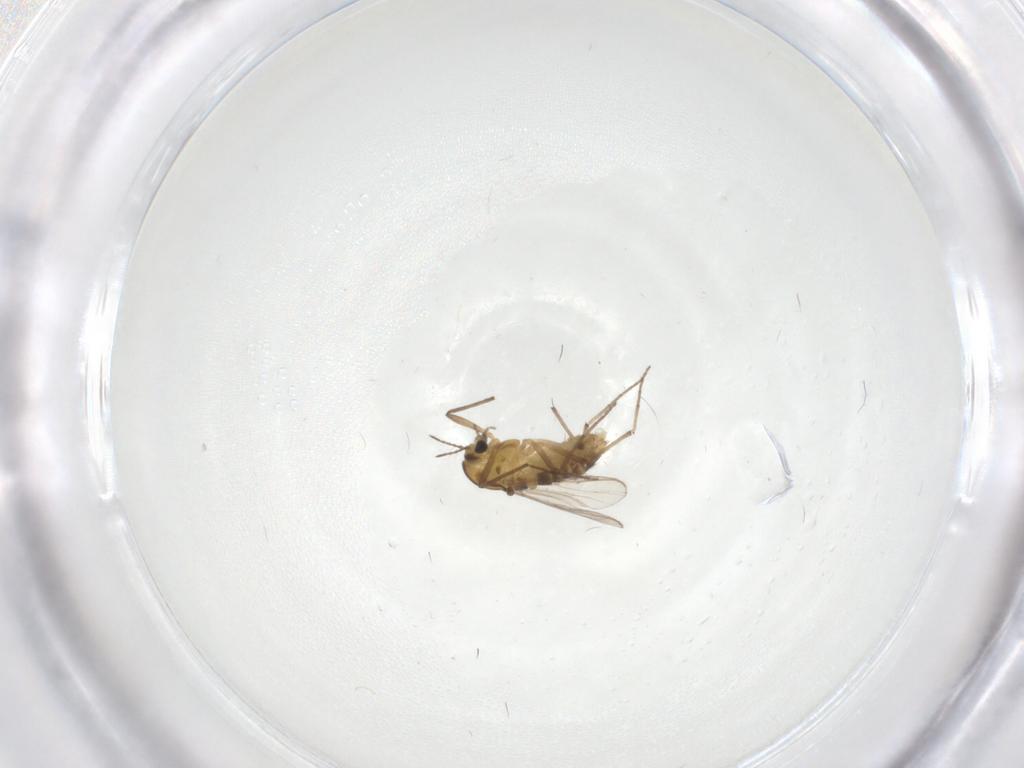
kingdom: Animalia
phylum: Arthropoda
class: Insecta
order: Diptera
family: Chironomidae
